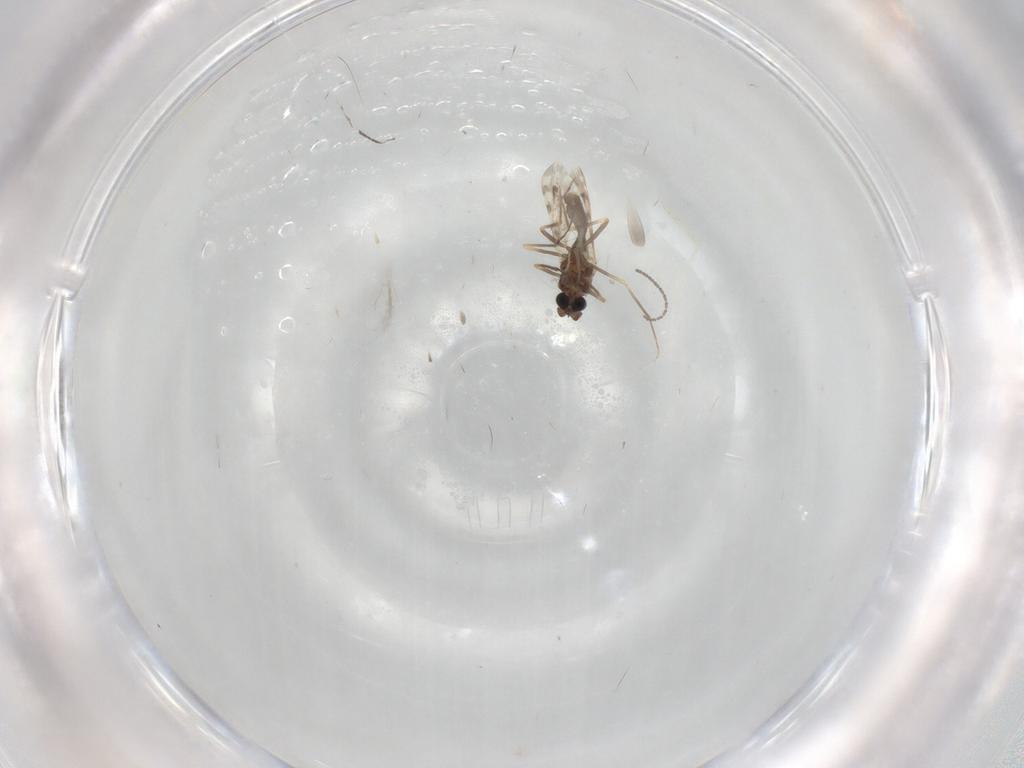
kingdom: Animalia
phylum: Arthropoda
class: Insecta
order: Diptera
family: Ceratopogonidae
